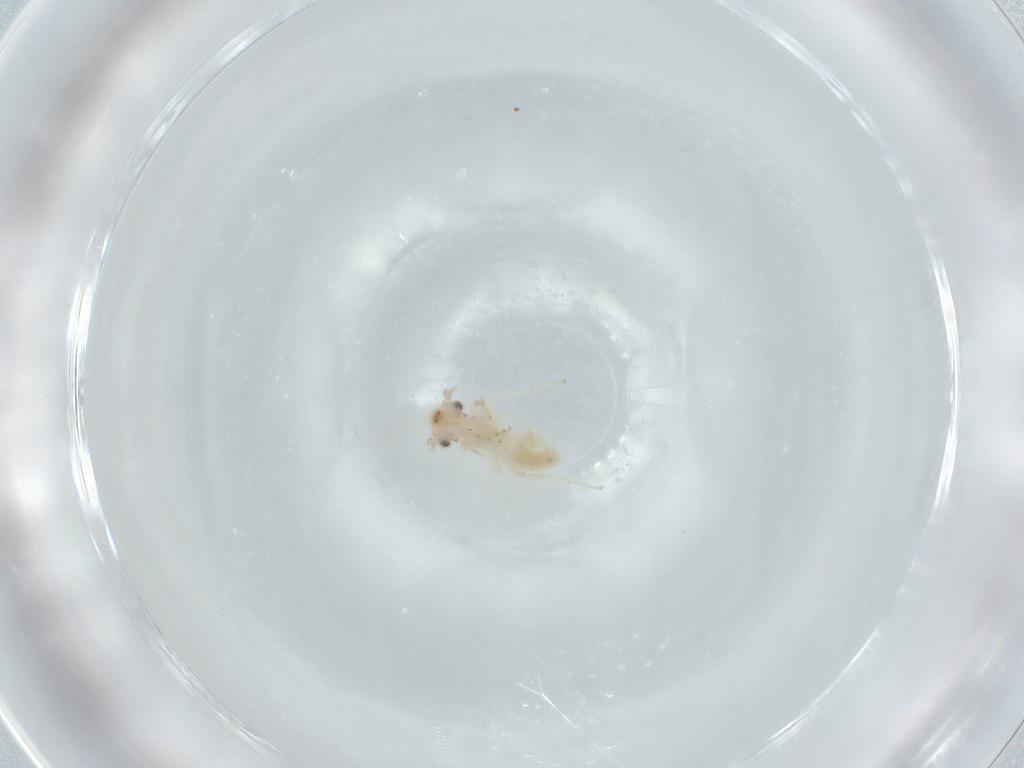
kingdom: Animalia
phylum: Arthropoda
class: Insecta
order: Psocodea
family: Lepidopsocidae
